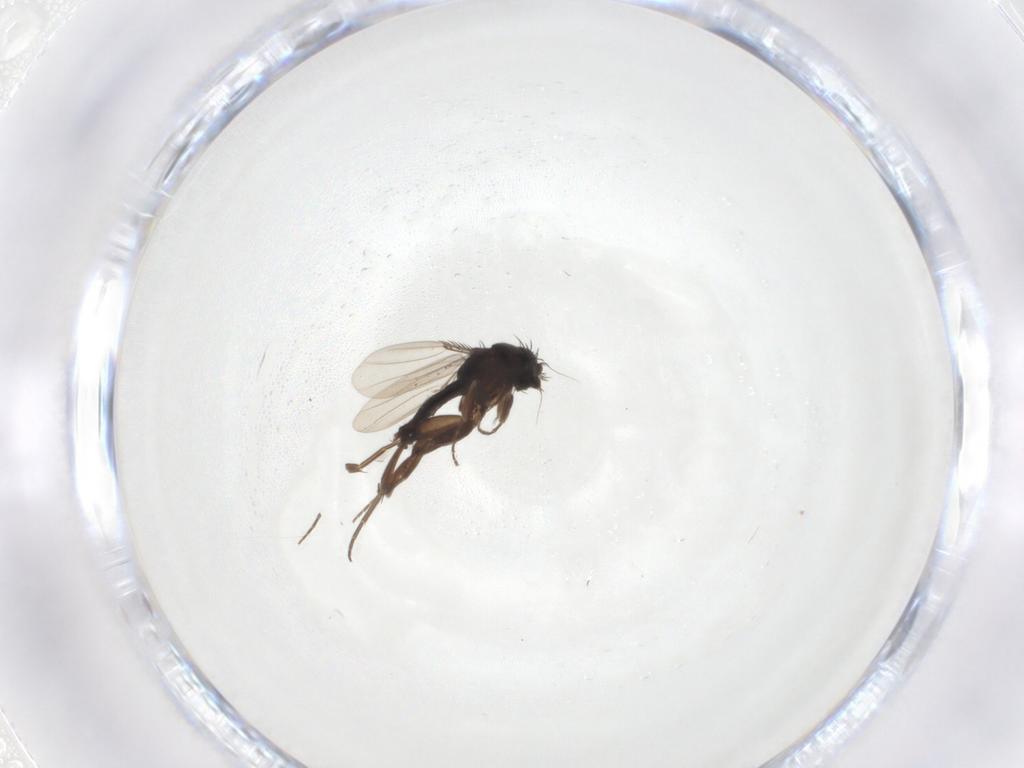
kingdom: Animalia
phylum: Arthropoda
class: Insecta
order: Diptera
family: Phoridae
